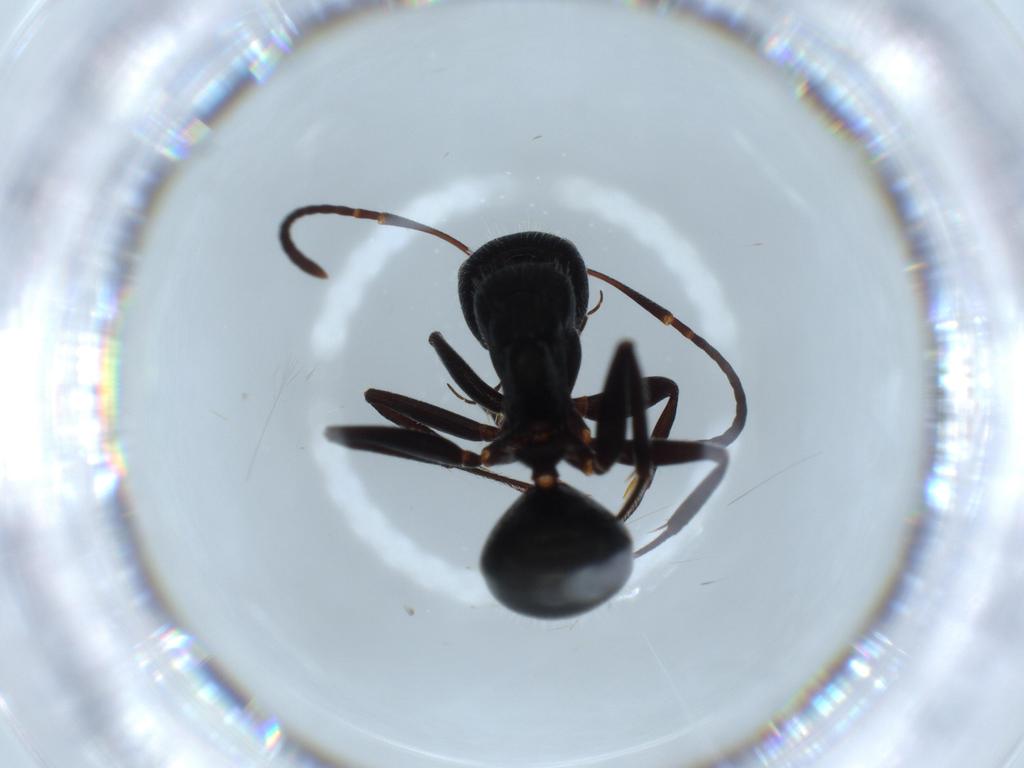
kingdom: Animalia
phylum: Arthropoda
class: Insecta
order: Hymenoptera
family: Formicidae
